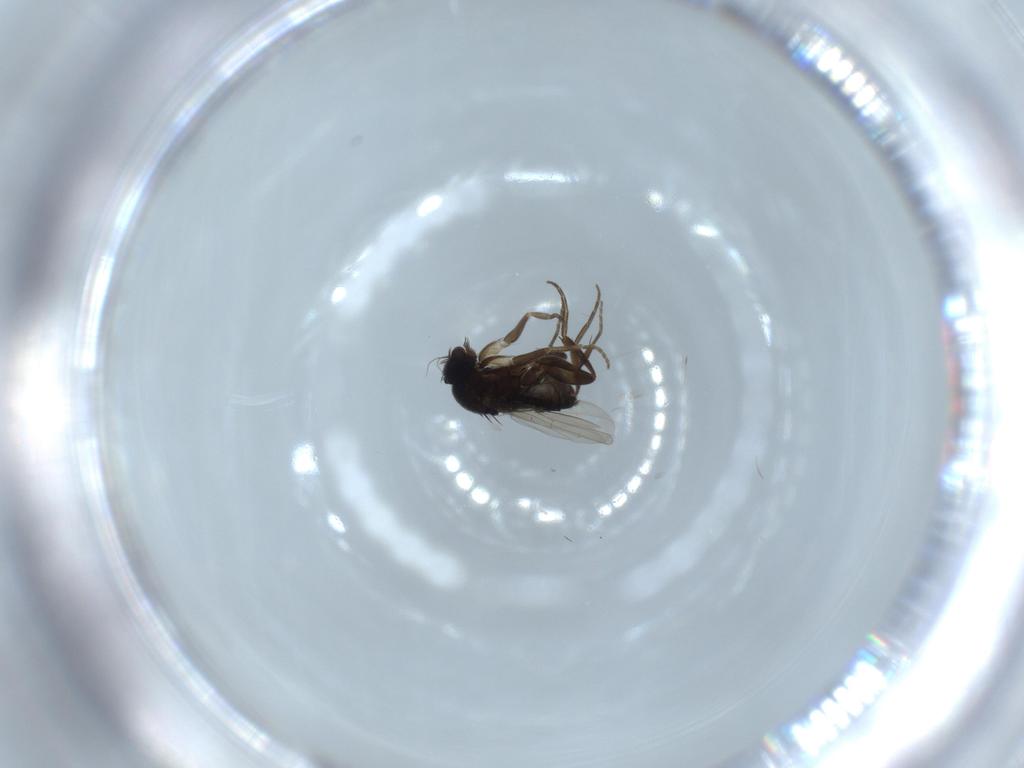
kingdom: Animalia
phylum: Arthropoda
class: Insecta
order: Diptera
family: Phoridae
